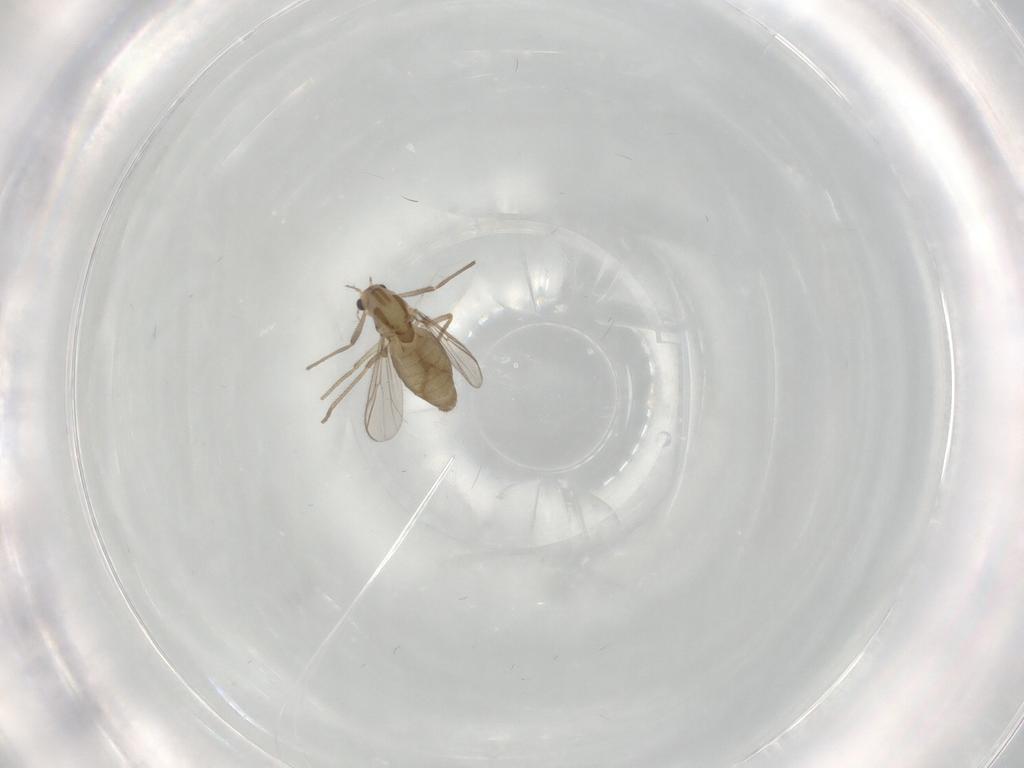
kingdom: Animalia
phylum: Arthropoda
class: Insecta
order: Diptera
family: Chironomidae
